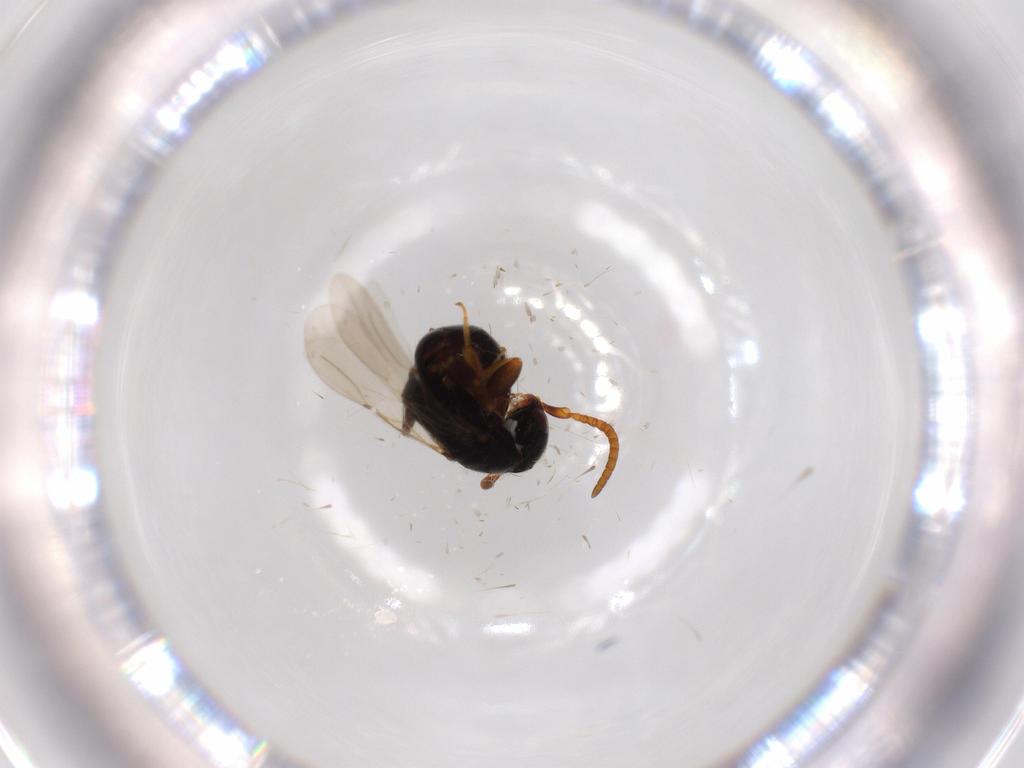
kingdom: Animalia
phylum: Arthropoda
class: Insecta
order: Hymenoptera
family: Bethylidae
